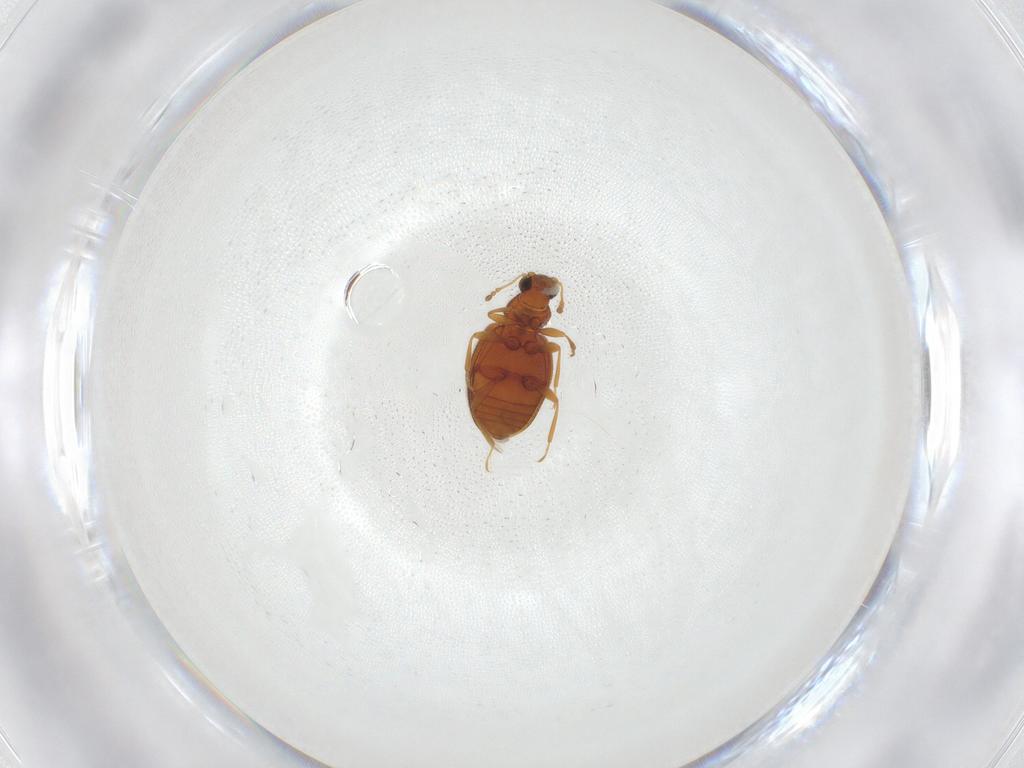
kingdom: Animalia
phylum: Arthropoda
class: Insecta
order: Coleoptera
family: Latridiidae
